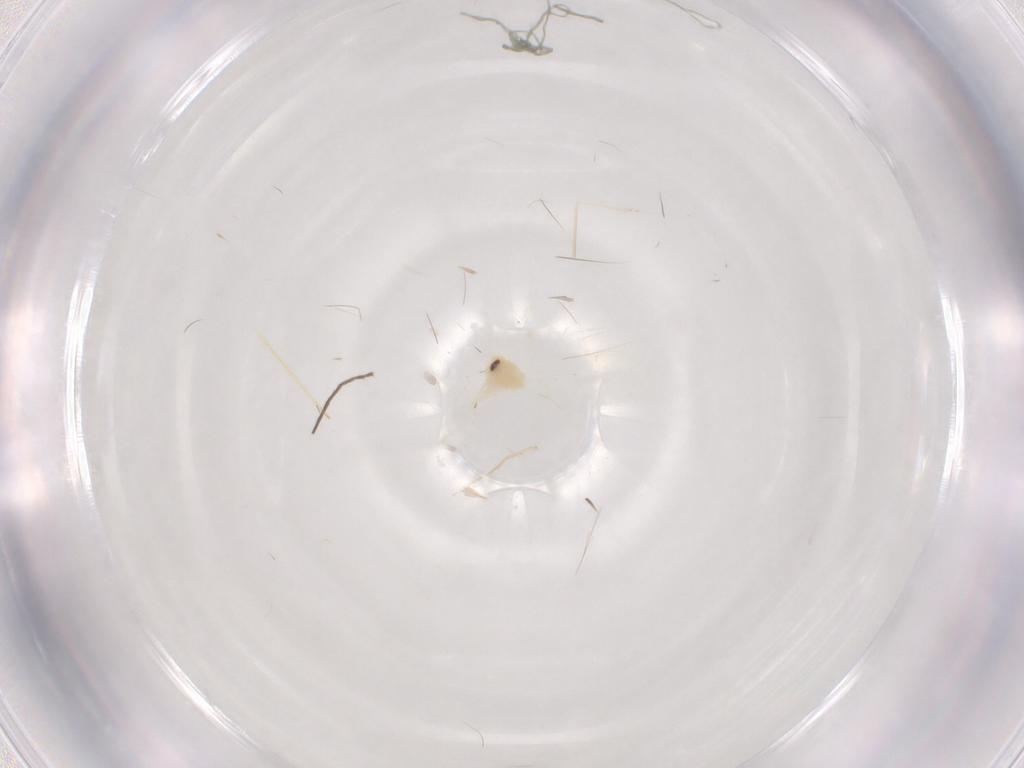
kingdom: Animalia
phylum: Arthropoda
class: Insecta
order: Hemiptera
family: Aleyrodidae
